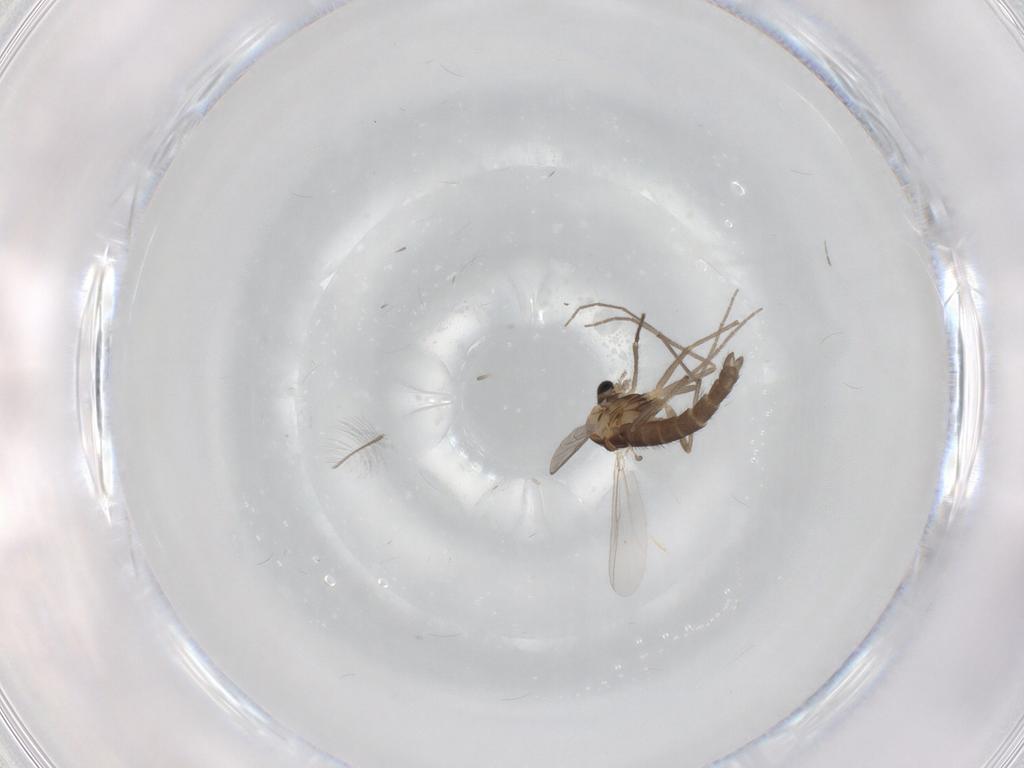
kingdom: Animalia
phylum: Arthropoda
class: Insecta
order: Diptera
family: Chironomidae
